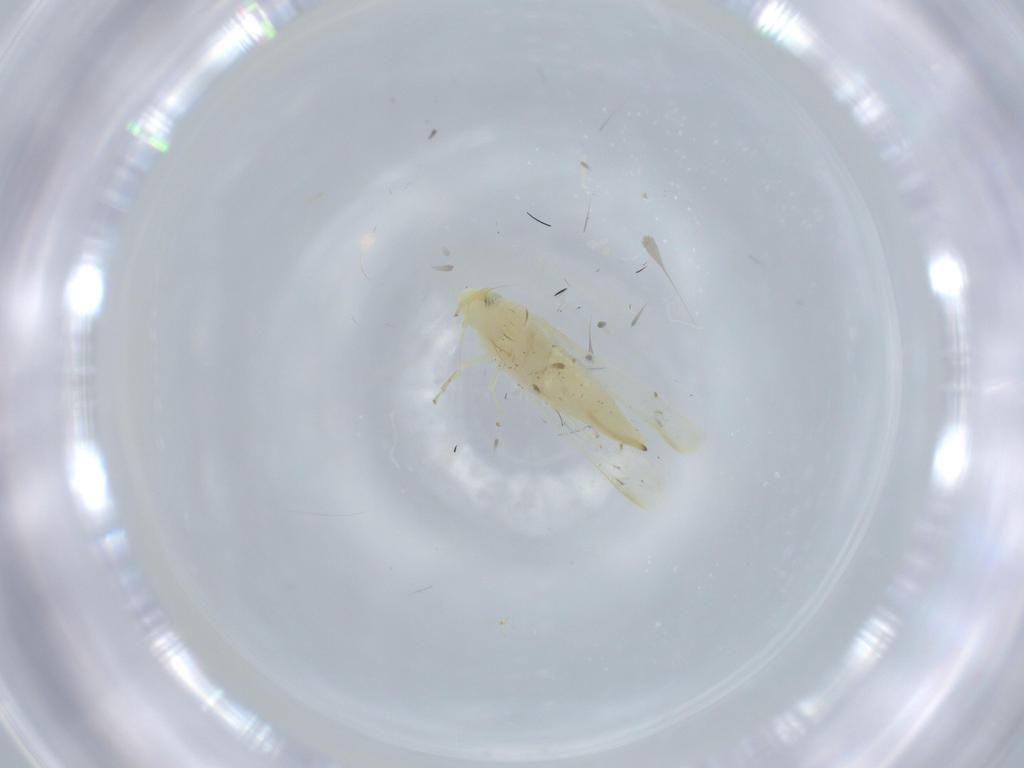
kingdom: Animalia
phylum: Arthropoda
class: Insecta
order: Hemiptera
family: Cicadellidae
